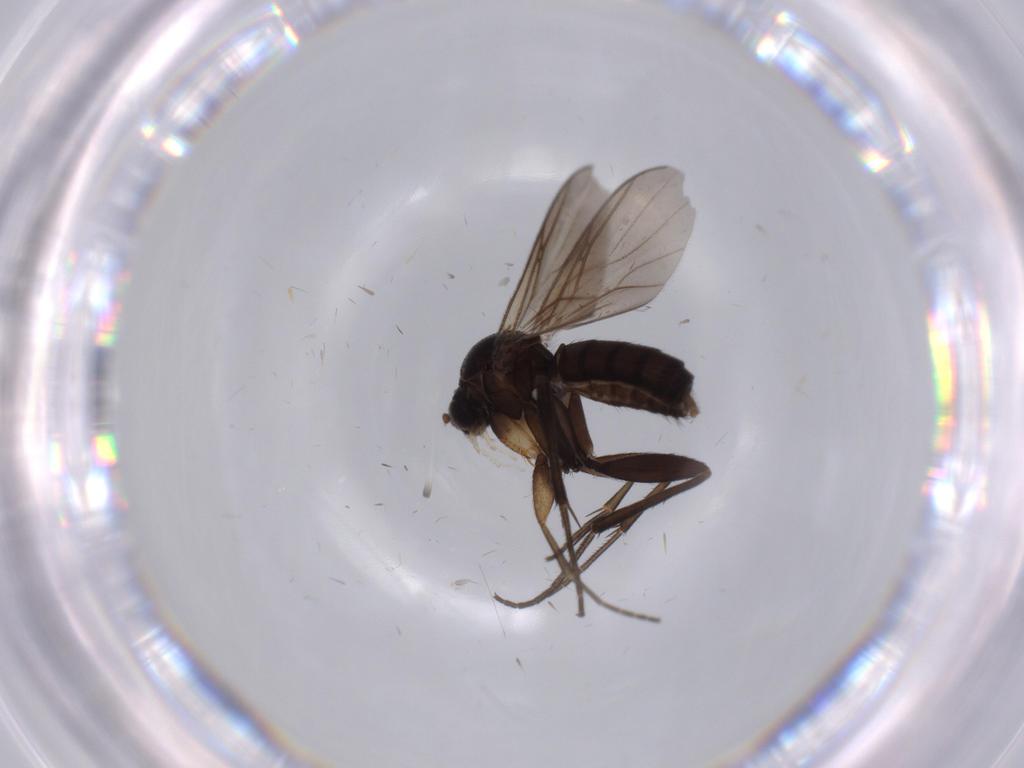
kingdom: Animalia
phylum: Arthropoda
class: Insecta
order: Diptera
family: Mycetophilidae
